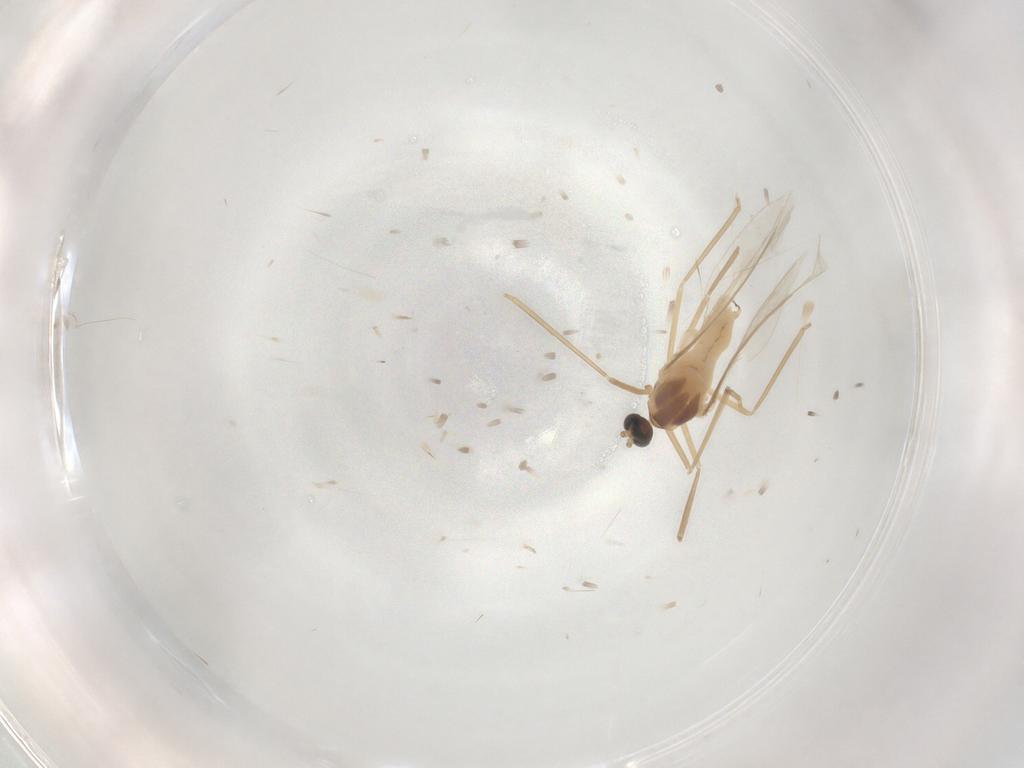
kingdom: Animalia
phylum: Arthropoda
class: Insecta
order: Diptera
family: Cecidomyiidae
